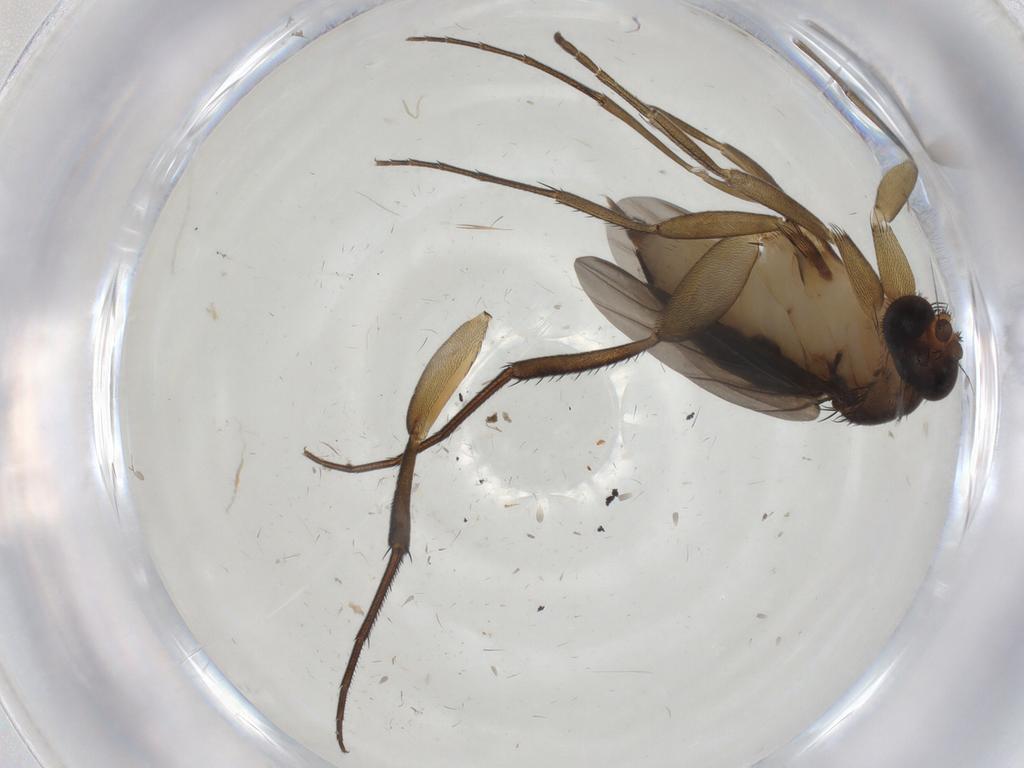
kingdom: Animalia
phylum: Arthropoda
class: Insecta
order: Diptera
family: Phoridae
